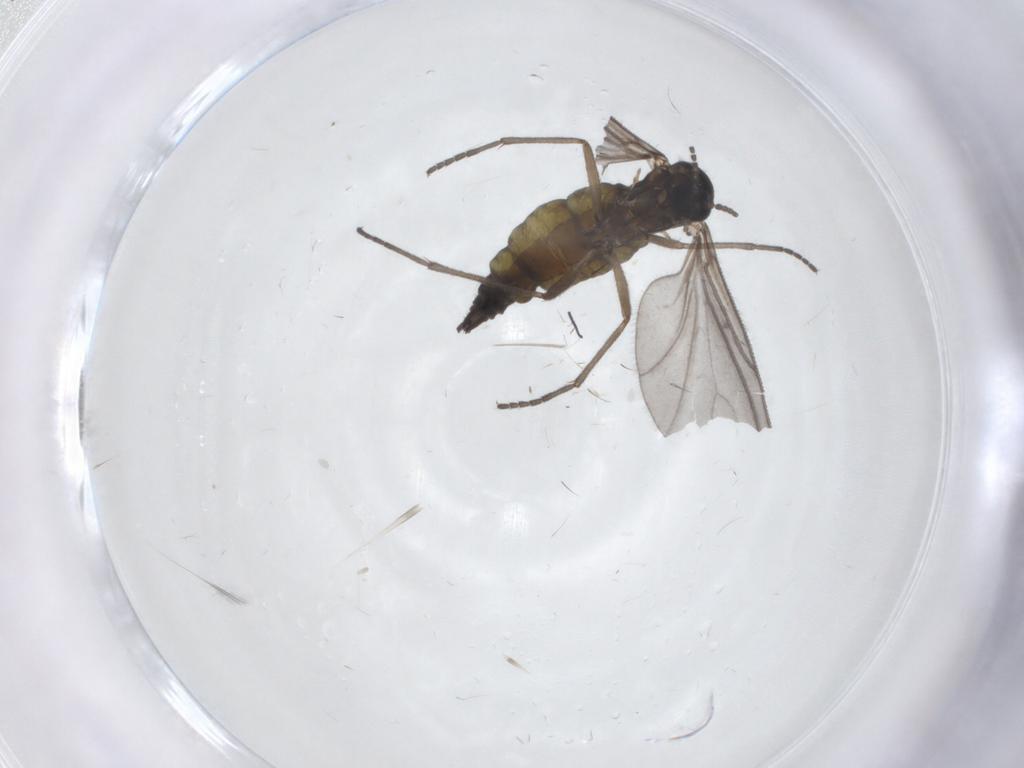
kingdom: Animalia
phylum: Arthropoda
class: Insecta
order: Diptera
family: Sciaridae
